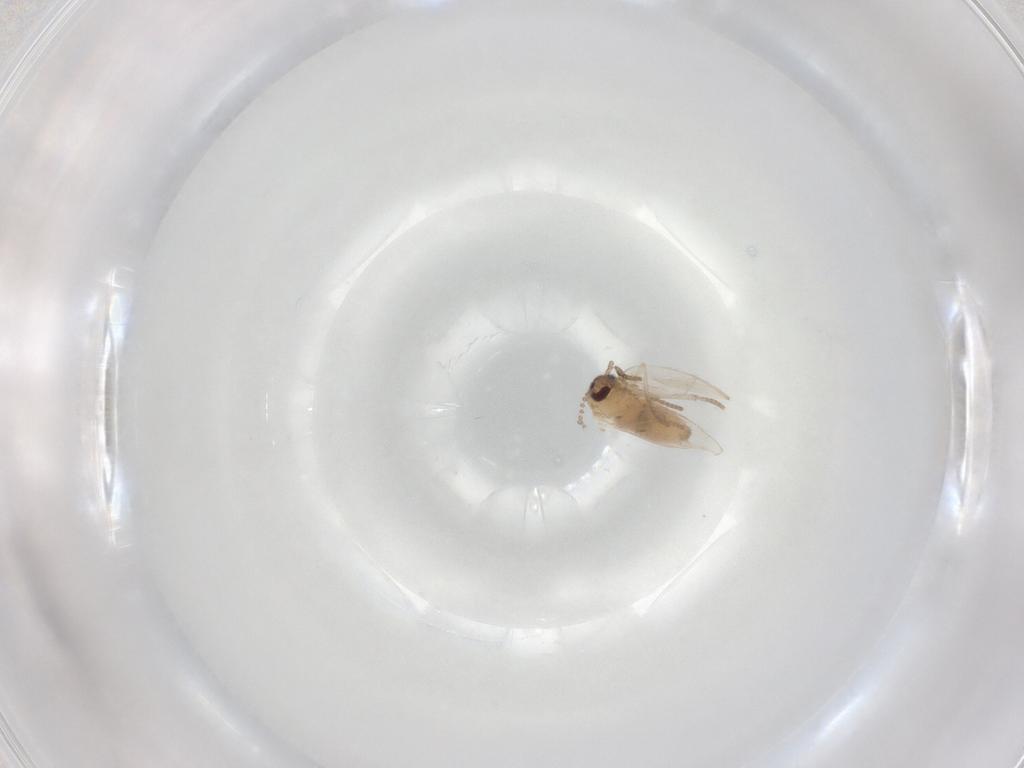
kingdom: Animalia
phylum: Arthropoda
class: Insecta
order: Diptera
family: Psychodidae
